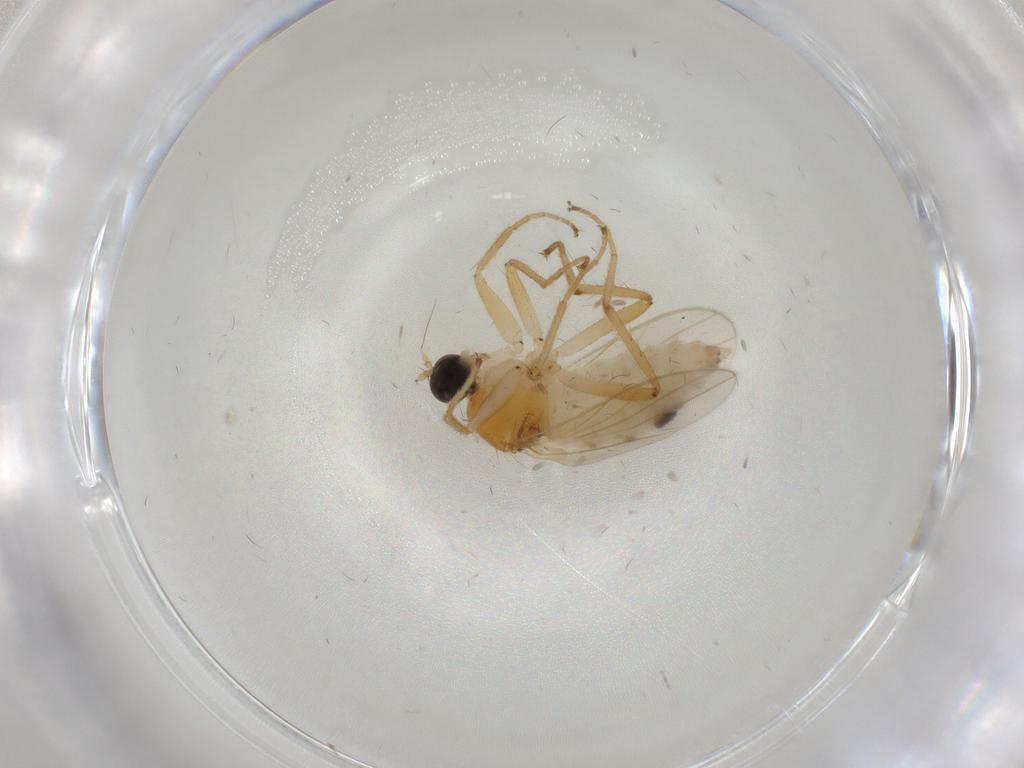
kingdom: Animalia
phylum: Arthropoda
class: Insecta
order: Diptera
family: Hybotidae
